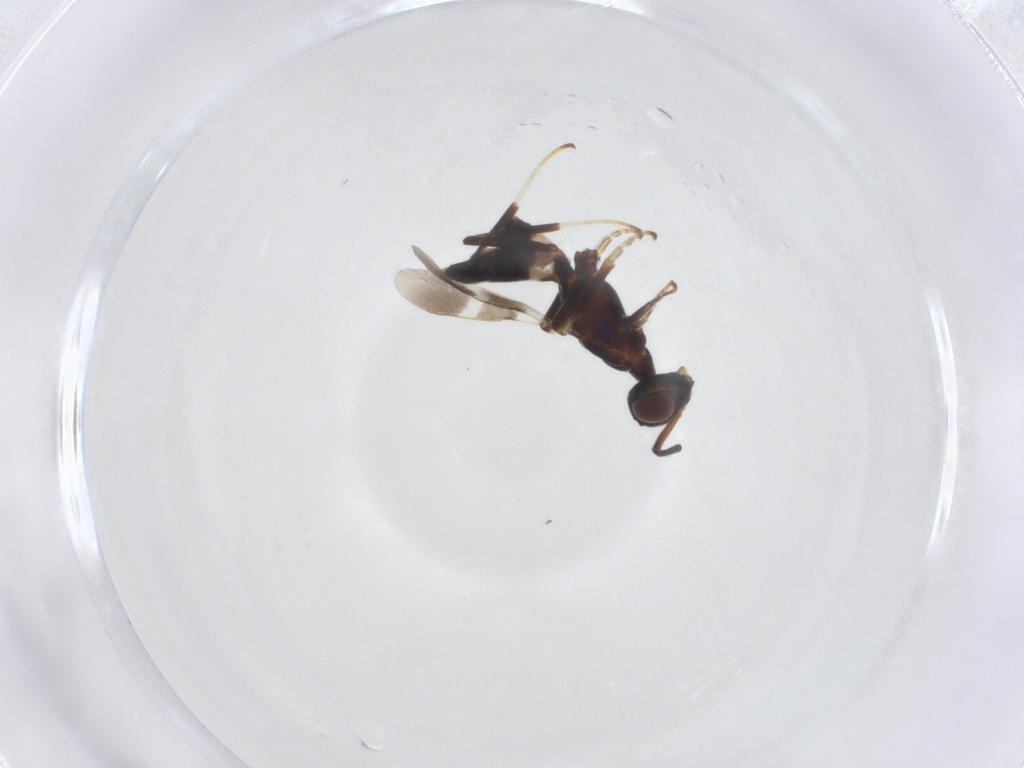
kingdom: Animalia
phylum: Arthropoda
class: Insecta
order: Hymenoptera
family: Eupelmidae
